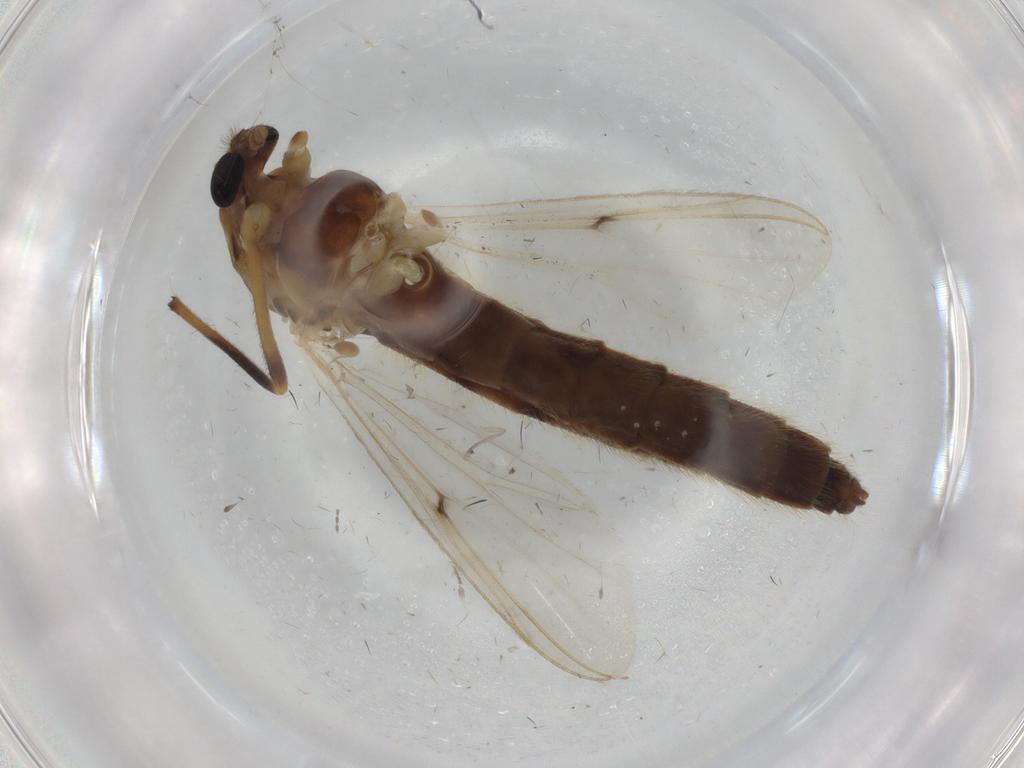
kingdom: Animalia
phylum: Arthropoda
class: Insecta
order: Diptera
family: Chironomidae
